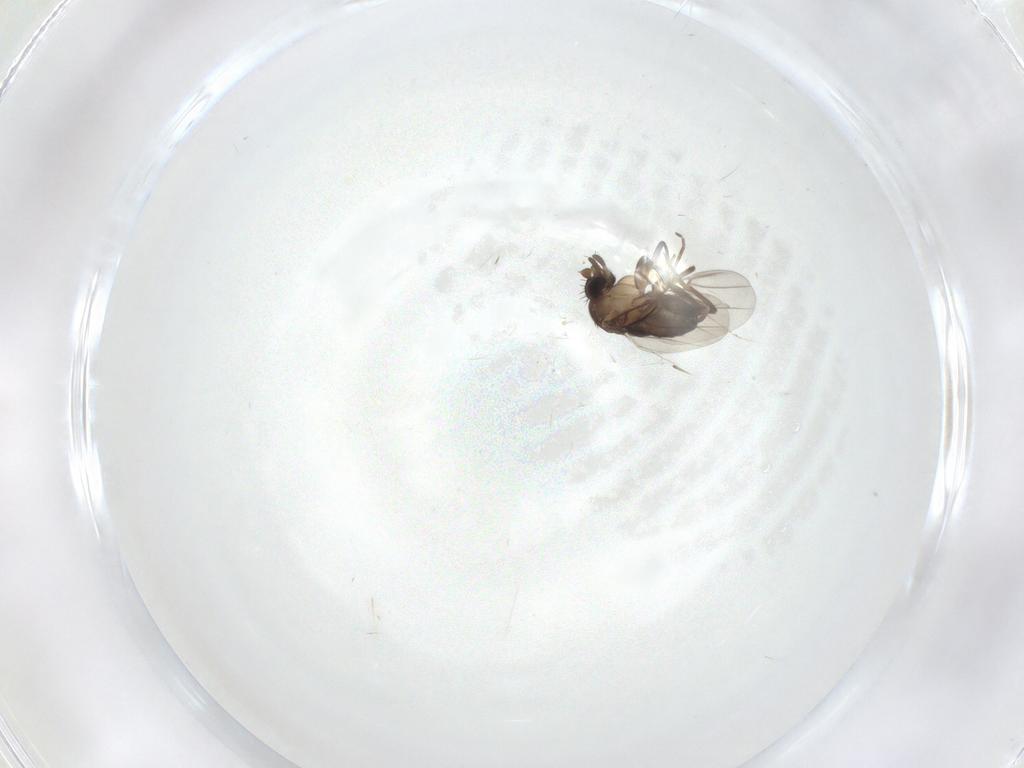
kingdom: Animalia
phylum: Arthropoda
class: Insecta
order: Diptera
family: Phoridae
